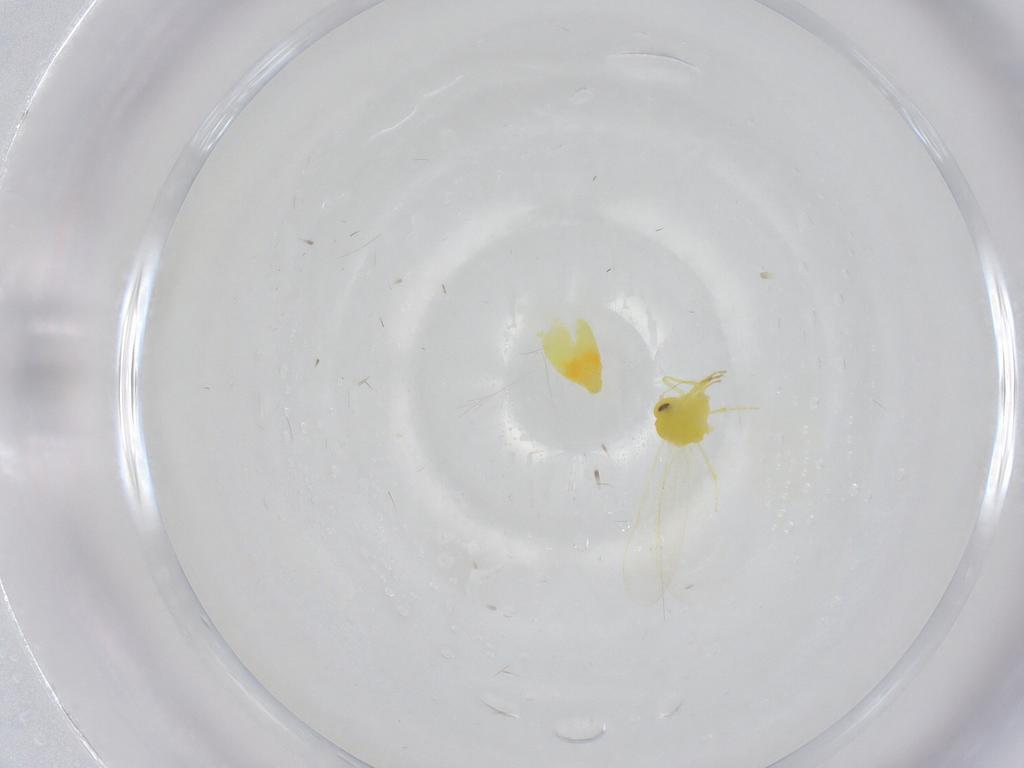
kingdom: Animalia
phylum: Arthropoda
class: Insecta
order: Hemiptera
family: Aleyrodidae
